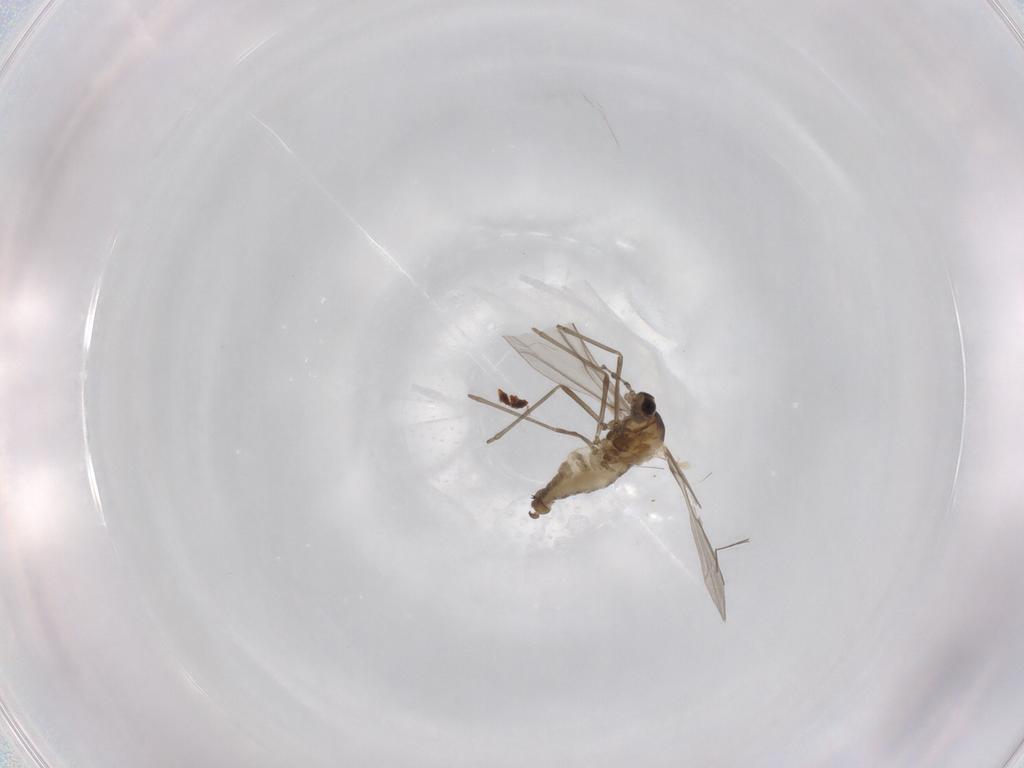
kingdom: Animalia
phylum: Arthropoda
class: Insecta
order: Diptera
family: Cecidomyiidae
